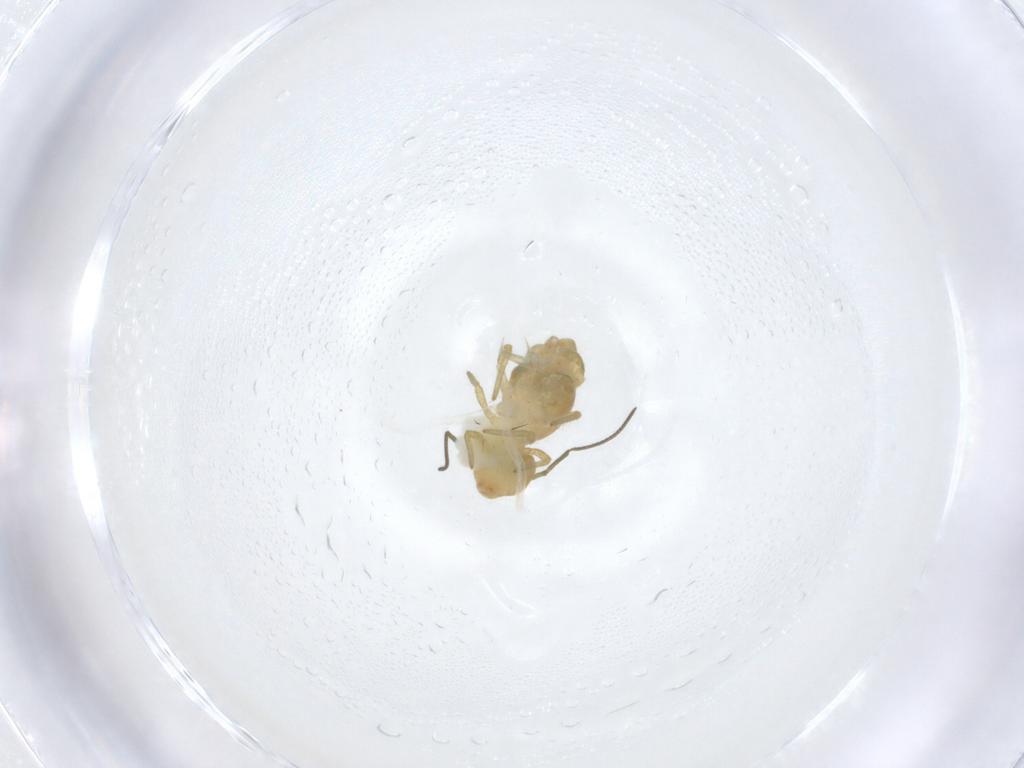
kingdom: Animalia
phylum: Arthropoda
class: Collembola
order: Symphypleona
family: Sminthuridae
